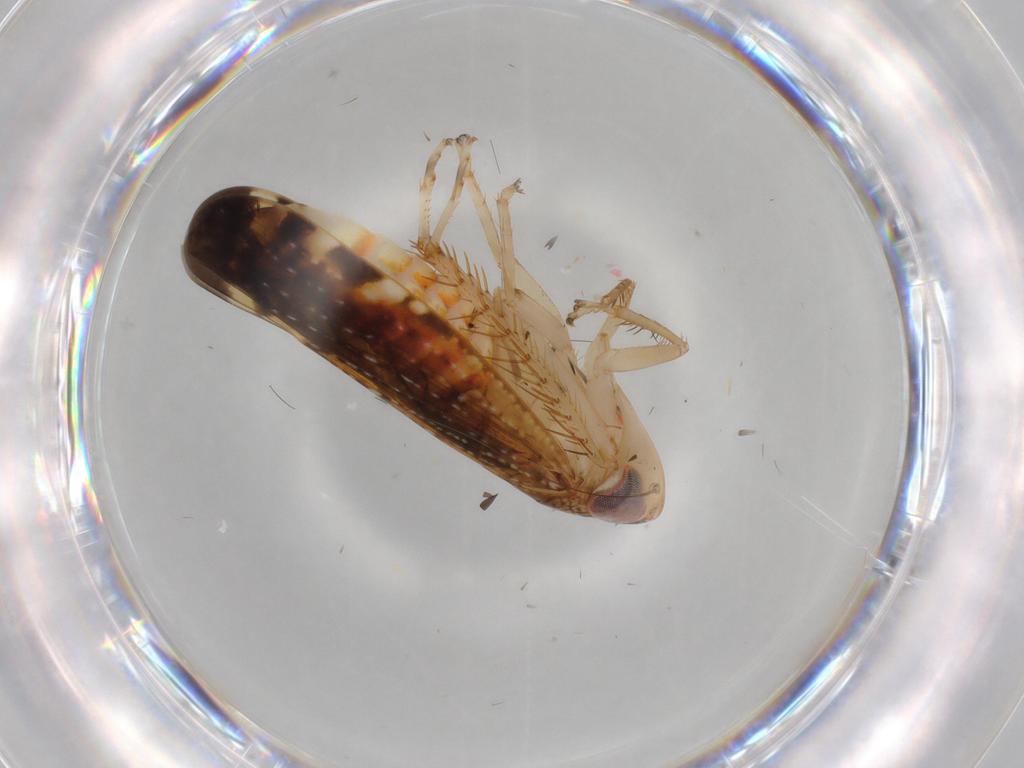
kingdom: Animalia
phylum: Arthropoda
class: Insecta
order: Hemiptera
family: Cicadellidae
